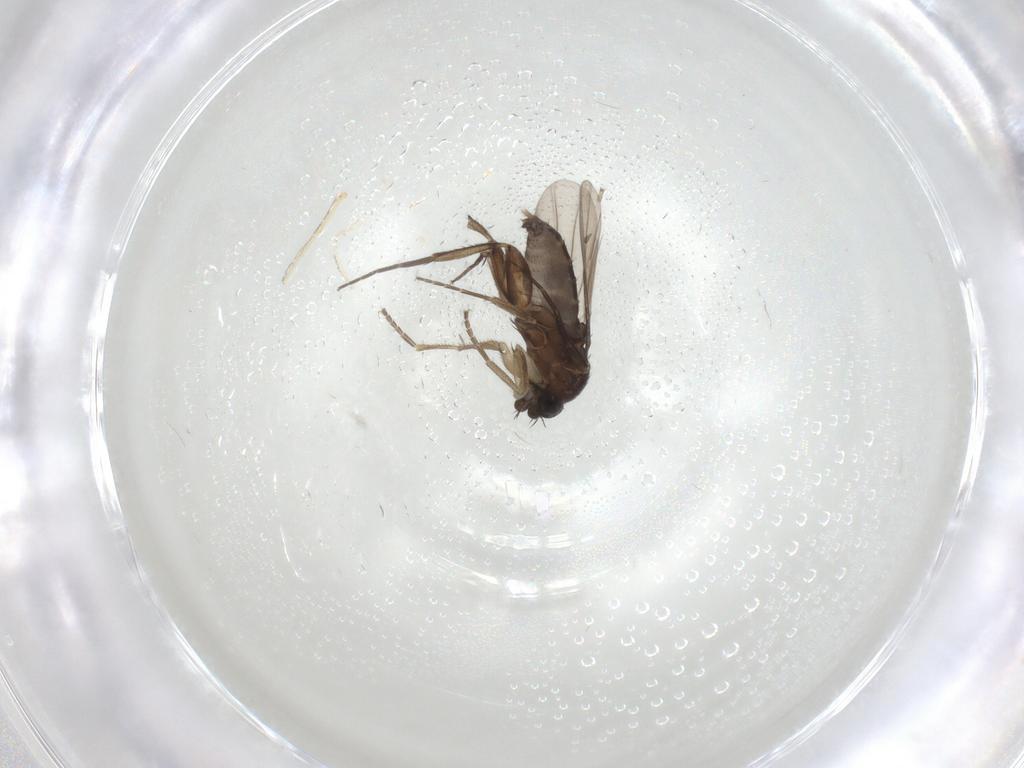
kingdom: Animalia
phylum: Arthropoda
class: Insecta
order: Diptera
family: Phoridae
